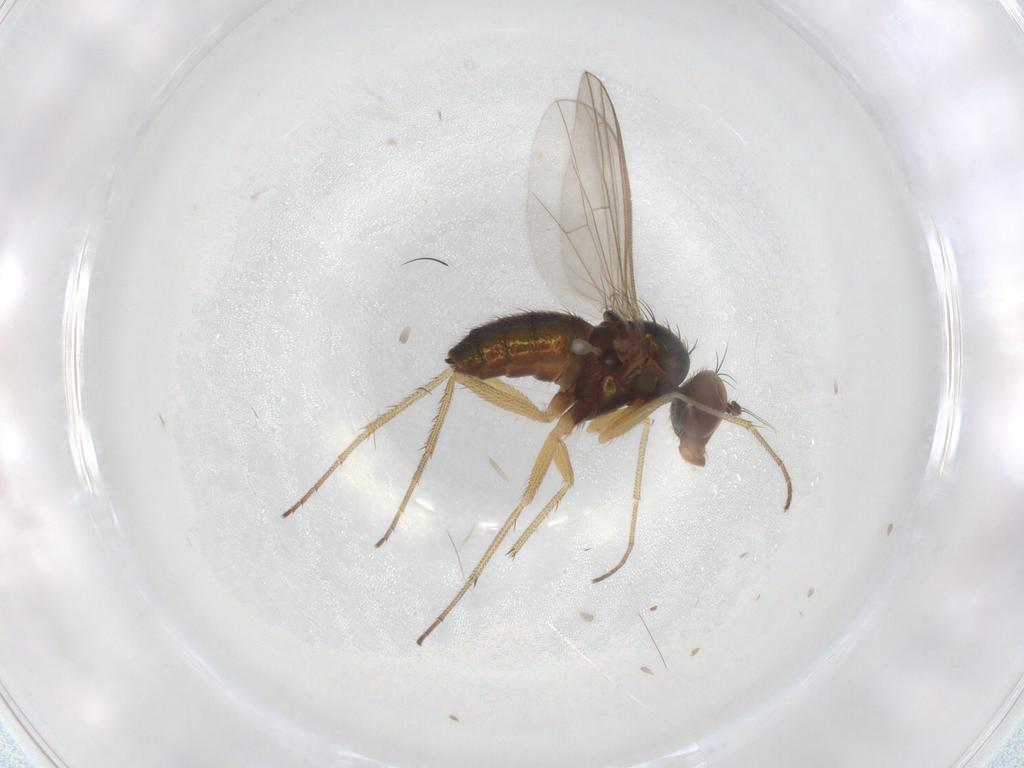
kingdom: Animalia
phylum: Arthropoda
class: Insecta
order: Diptera
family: Dolichopodidae
